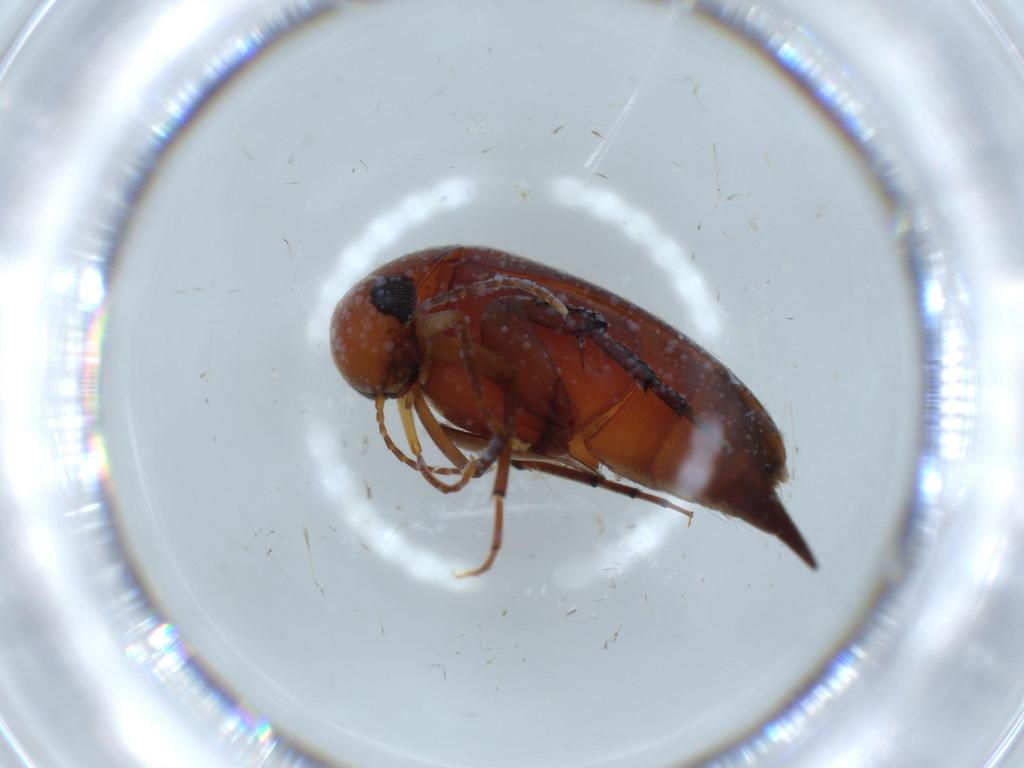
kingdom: Animalia
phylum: Arthropoda
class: Insecta
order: Coleoptera
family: Mordellidae
